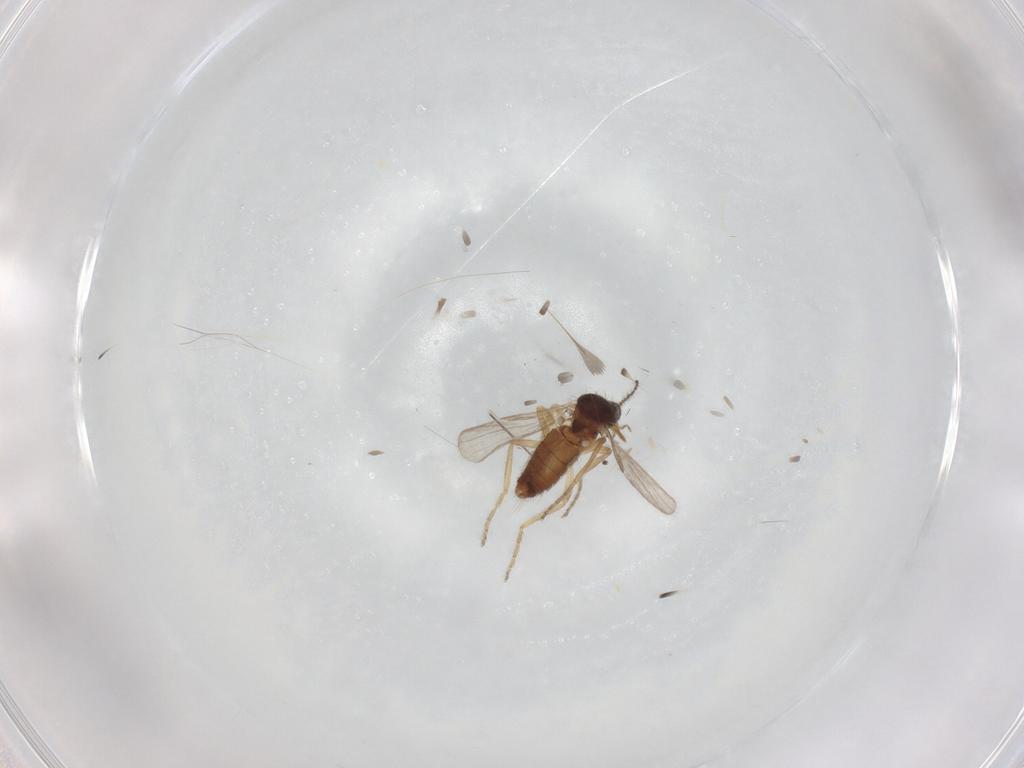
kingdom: Animalia
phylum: Arthropoda
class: Insecta
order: Diptera
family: Ceratopogonidae
